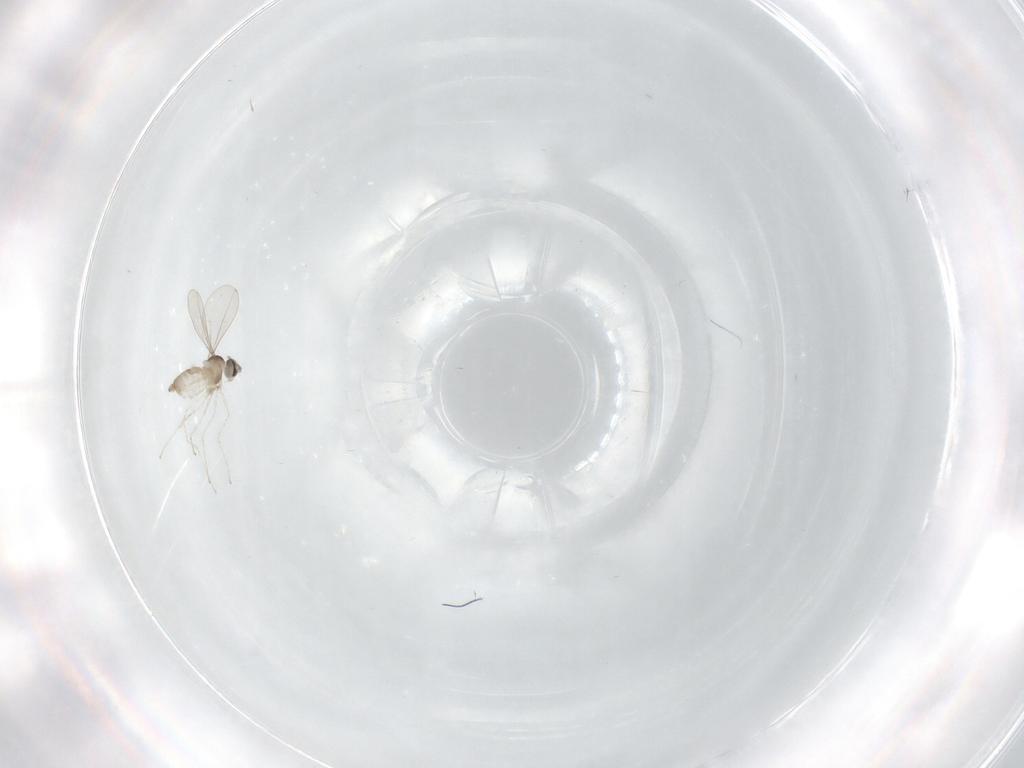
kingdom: Animalia
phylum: Arthropoda
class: Insecta
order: Diptera
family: Cecidomyiidae
